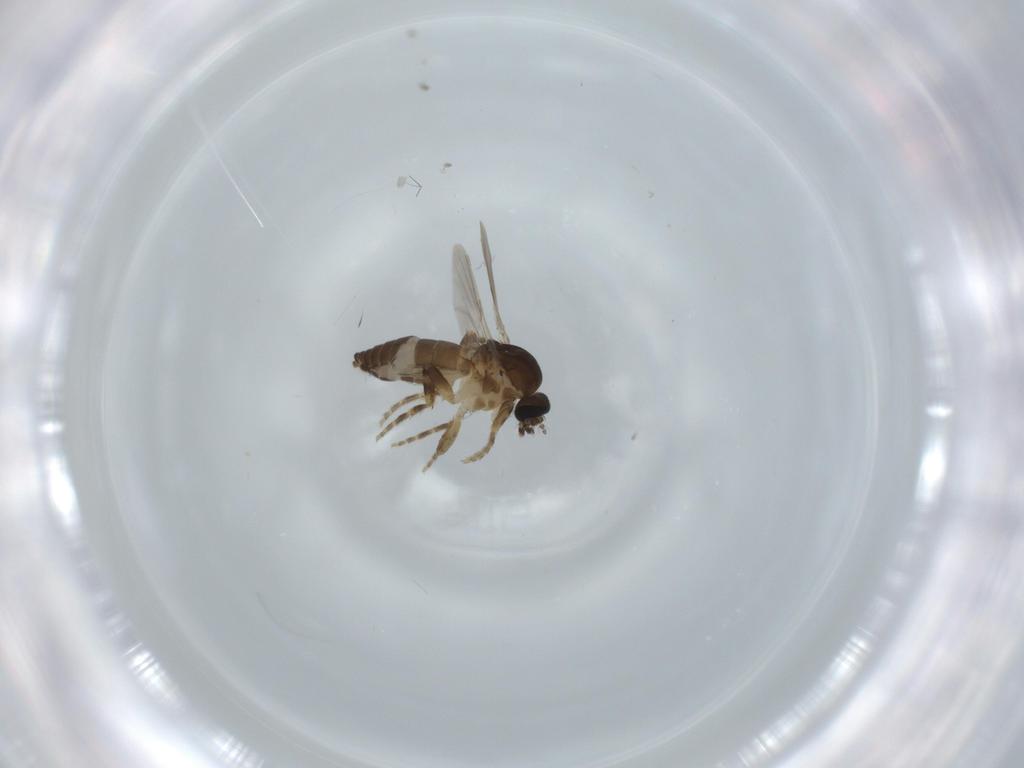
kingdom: Animalia
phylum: Arthropoda
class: Insecta
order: Diptera
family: Ceratopogonidae
